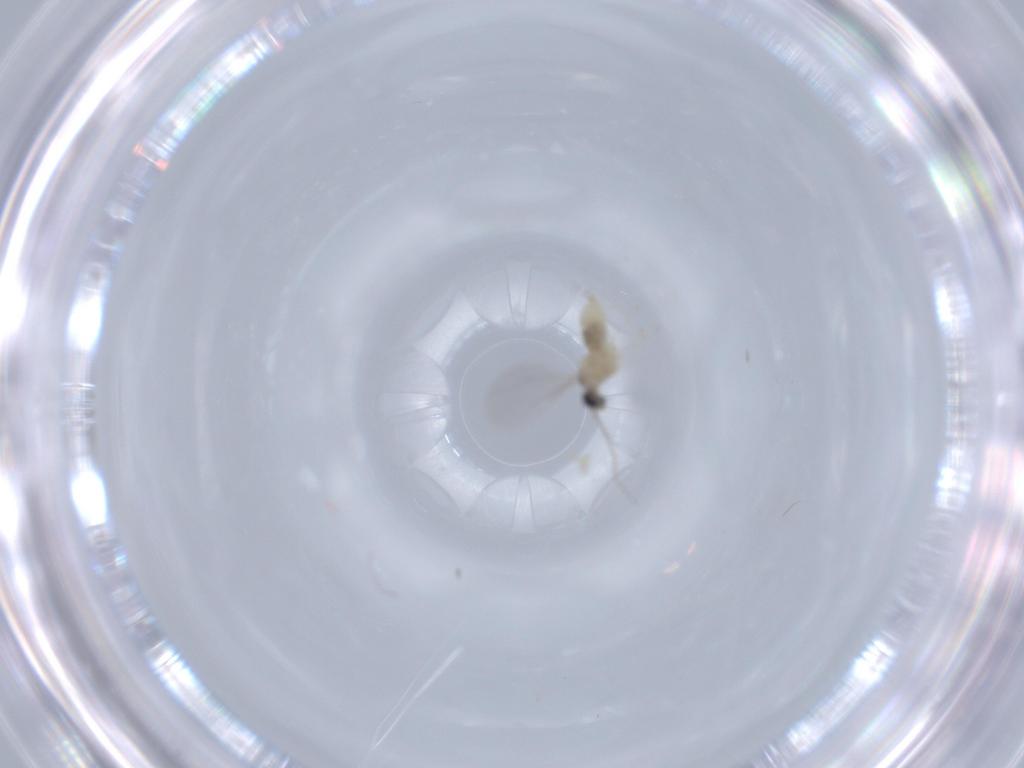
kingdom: Animalia
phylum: Arthropoda
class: Insecta
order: Diptera
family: Cecidomyiidae
